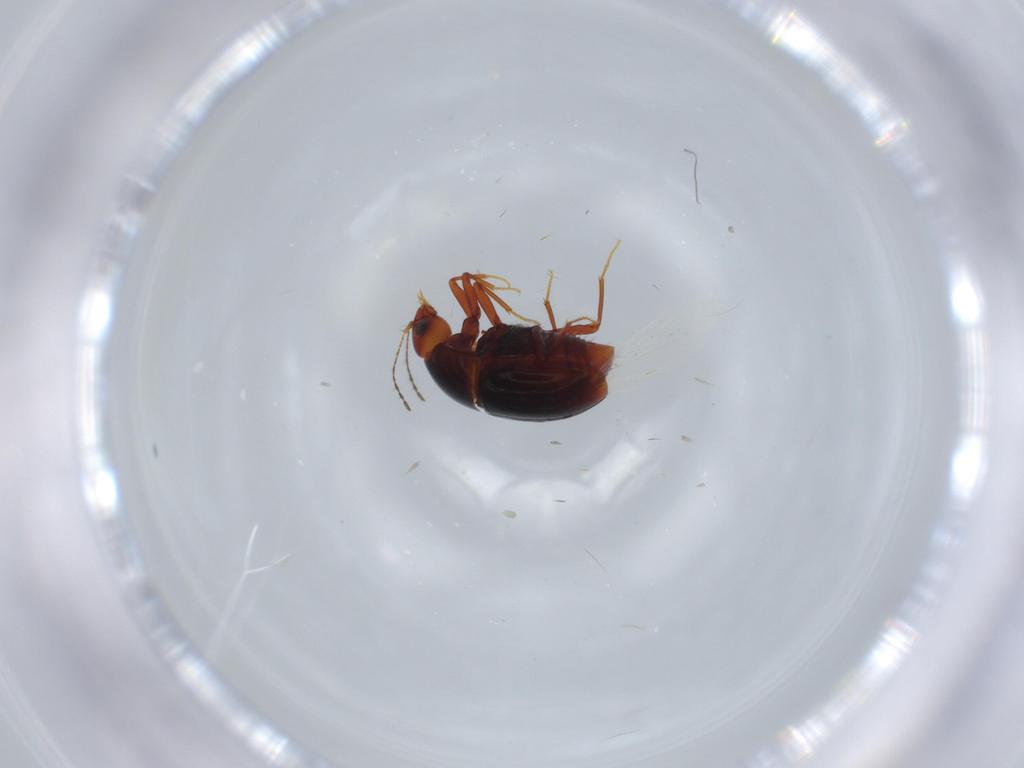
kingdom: Animalia
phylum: Arthropoda
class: Insecta
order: Coleoptera
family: Staphylinidae
